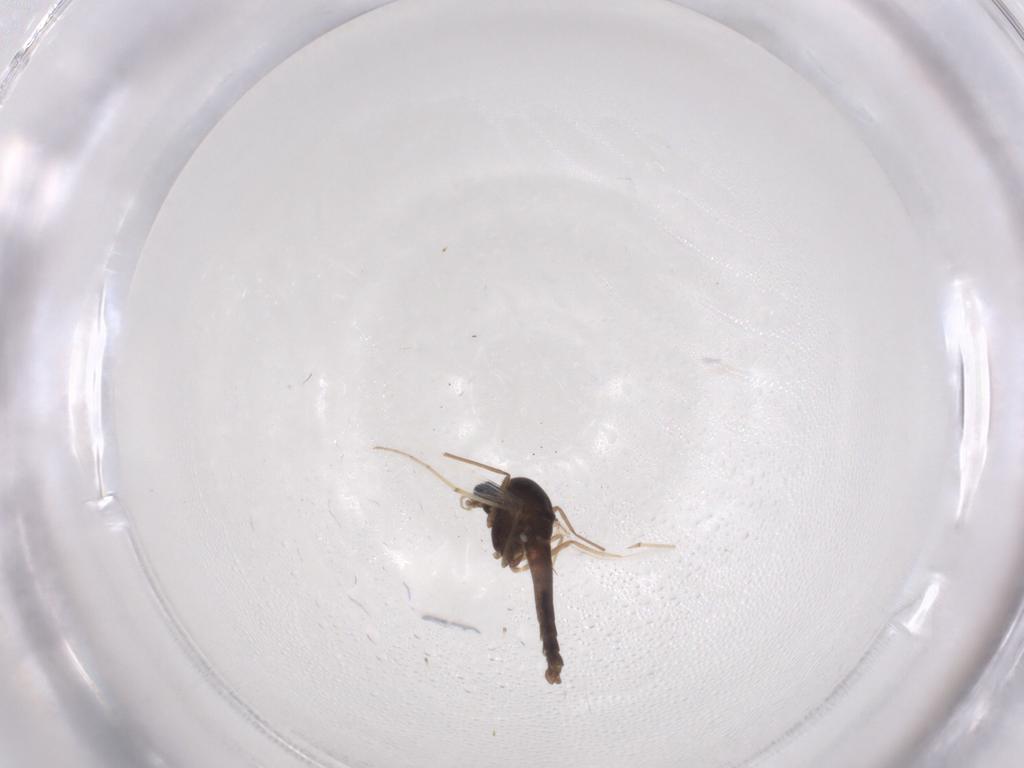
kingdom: Animalia
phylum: Arthropoda
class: Insecta
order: Diptera
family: Chironomidae
